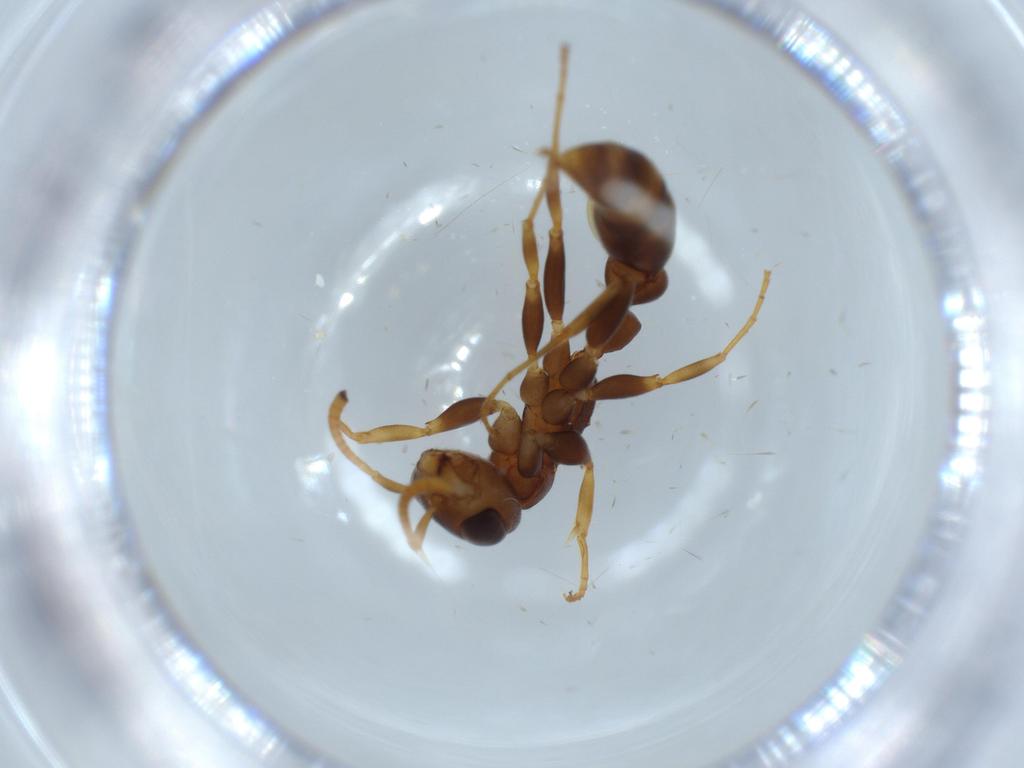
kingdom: Animalia
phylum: Arthropoda
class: Insecta
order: Hymenoptera
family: Formicidae
